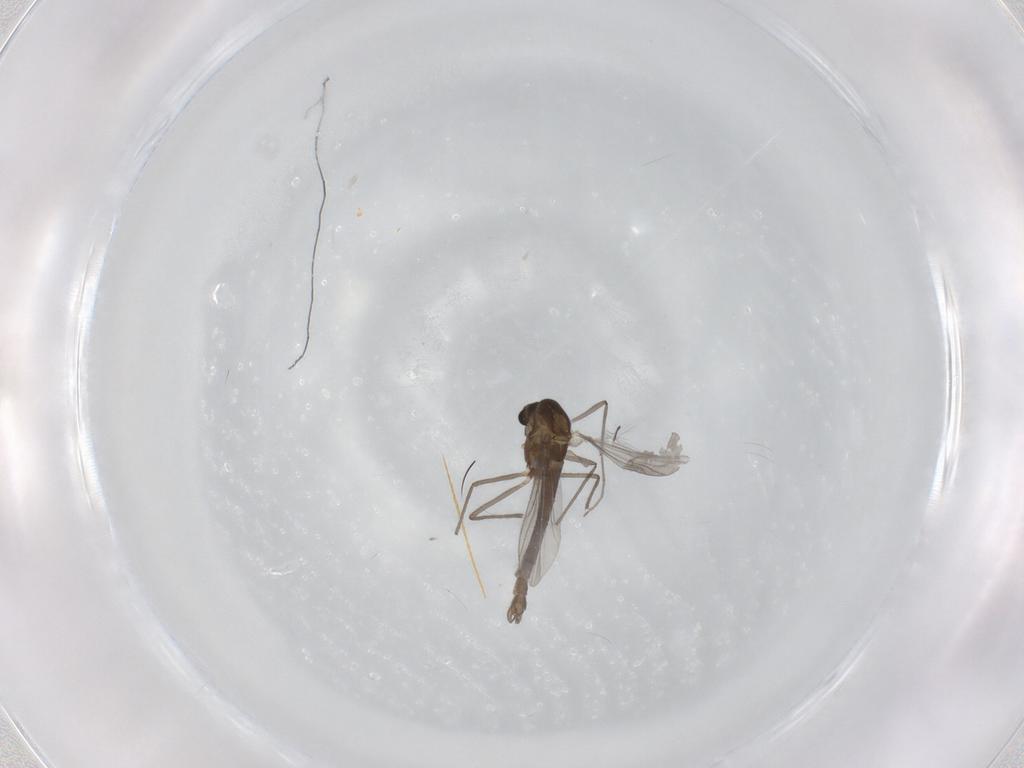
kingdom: Animalia
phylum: Arthropoda
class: Insecta
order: Diptera
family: Chironomidae
